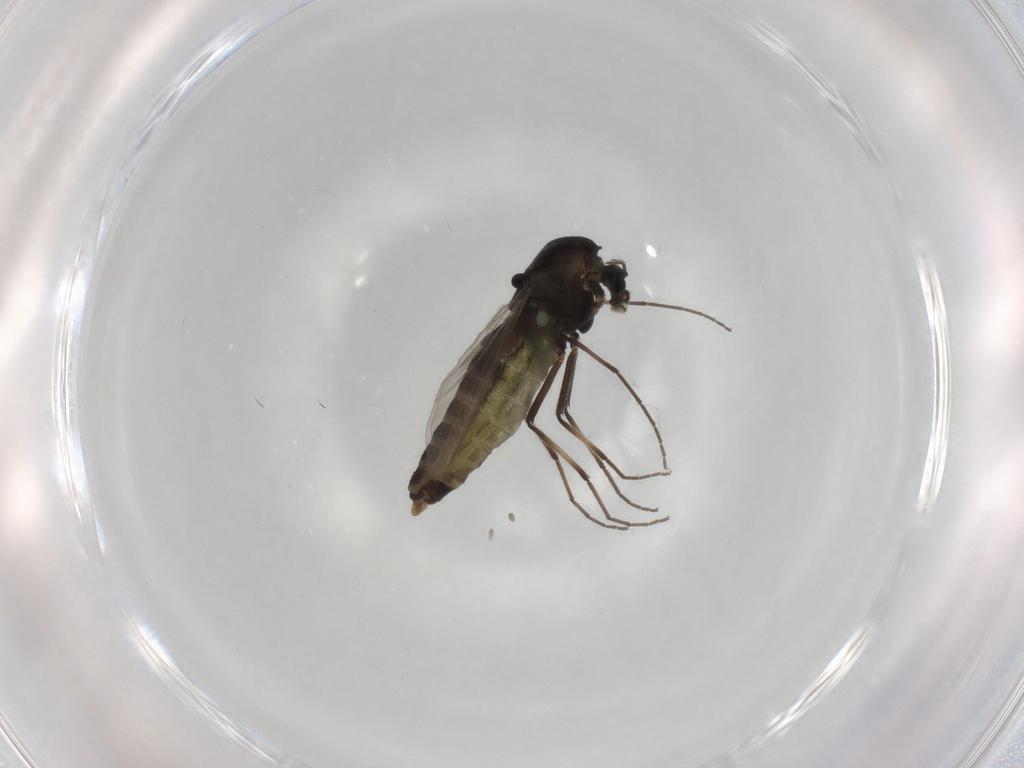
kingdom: Animalia
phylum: Arthropoda
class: Insecta
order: Diptera
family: Chironomidae
